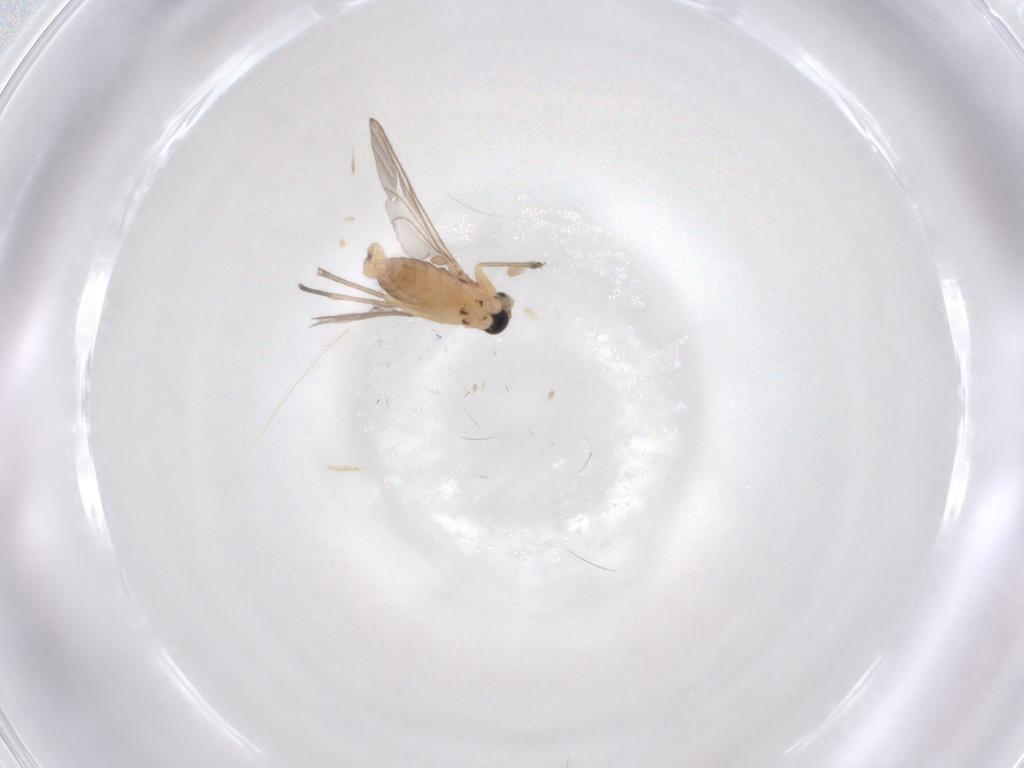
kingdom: Animalia
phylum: Arthropoda
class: Insecta
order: Diptera
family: Sciaridae
